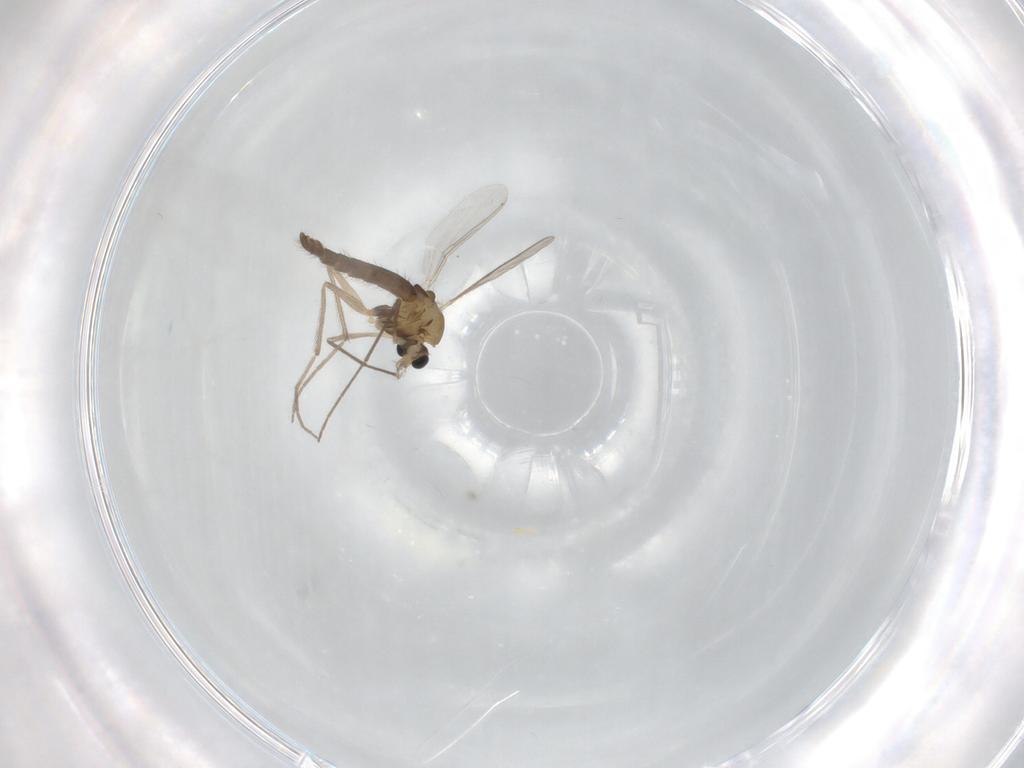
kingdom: Animalia
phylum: Arthropoda
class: Insecta
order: Diptera
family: Chironomidae
